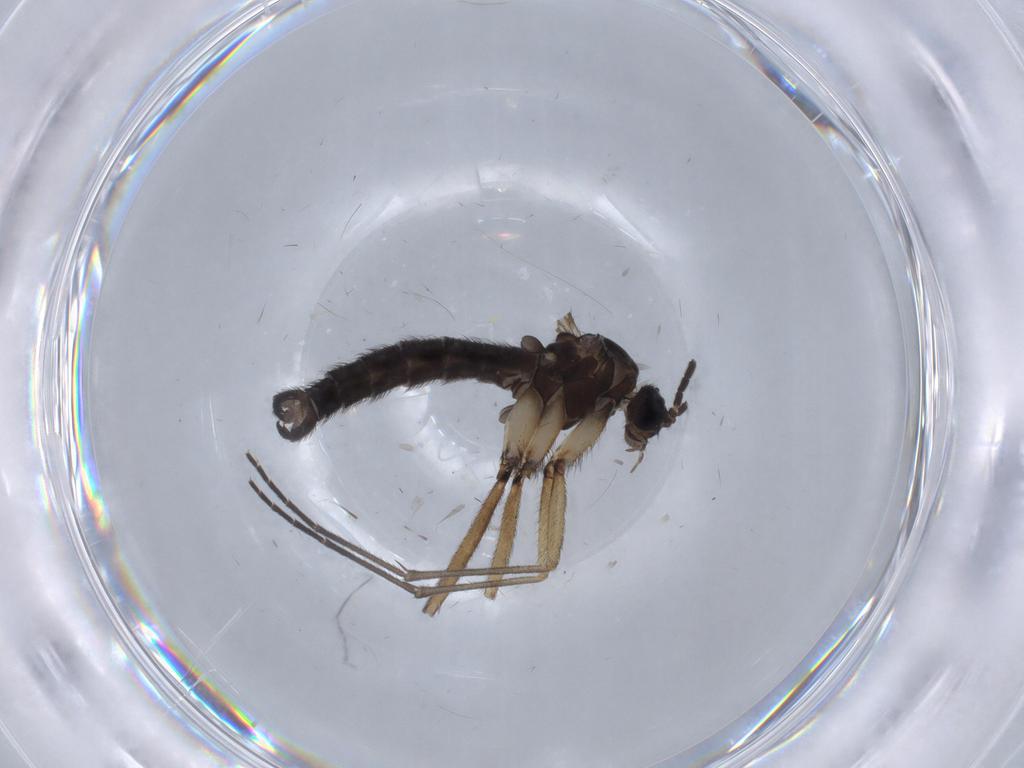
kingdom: Animalia
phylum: Arthropoda
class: Insecta
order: Diptera
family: Sciaridae
